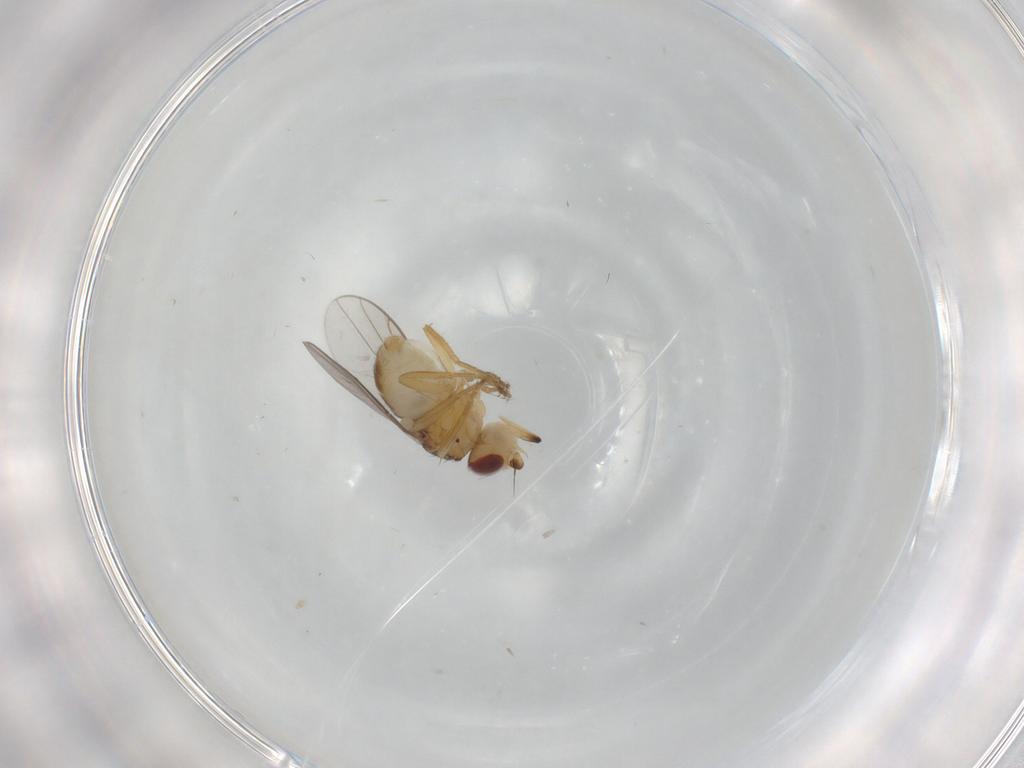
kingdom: Animalia
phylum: Arthropoda
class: Insecta
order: Diptera
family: Chloropidae
